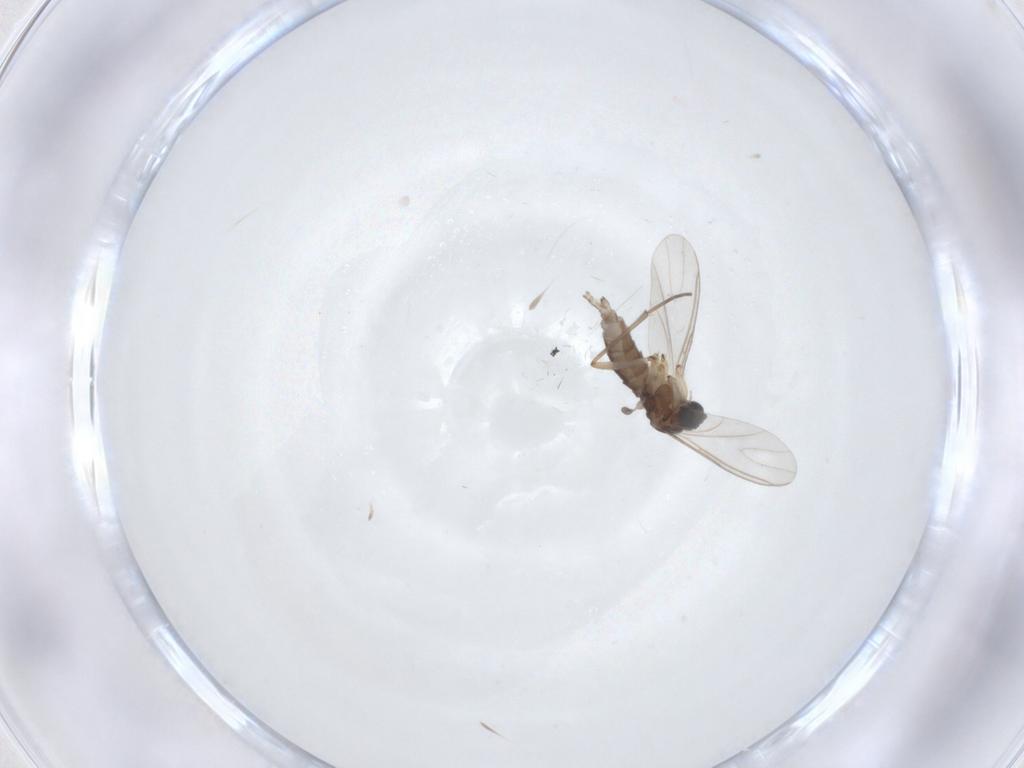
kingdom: Animalia
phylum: Arthropoda
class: Insecta
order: Diptera
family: Sciaridae
